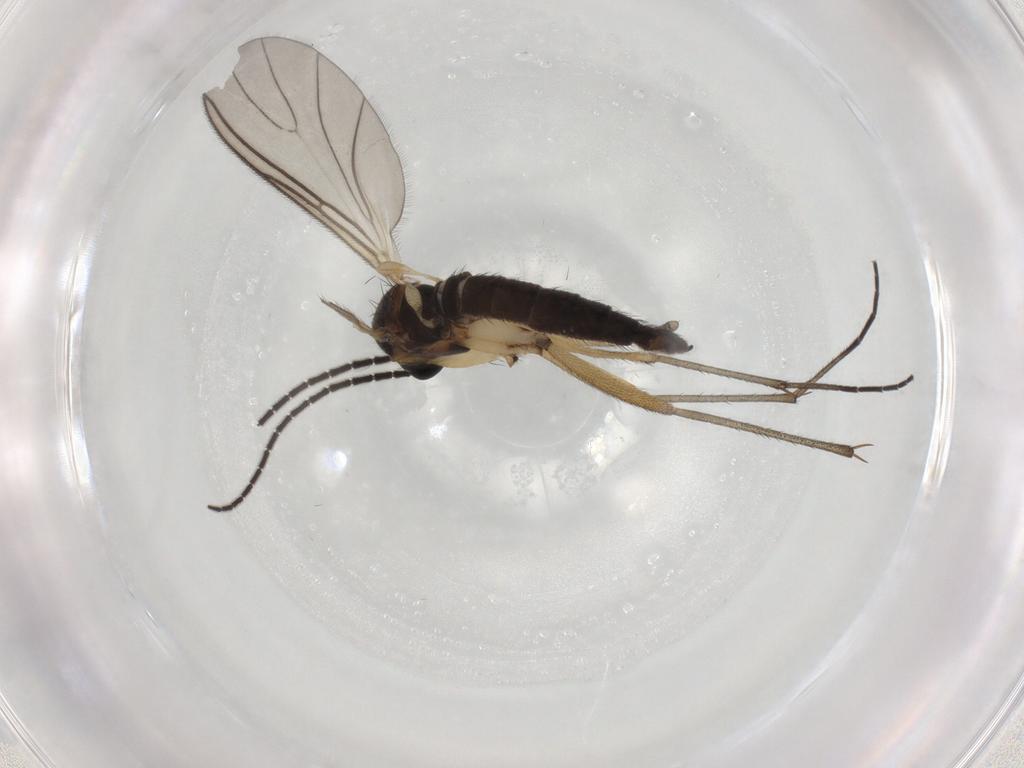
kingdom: Animalia
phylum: Arthropoda
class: Insecta
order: Diptera
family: Sciaridae
